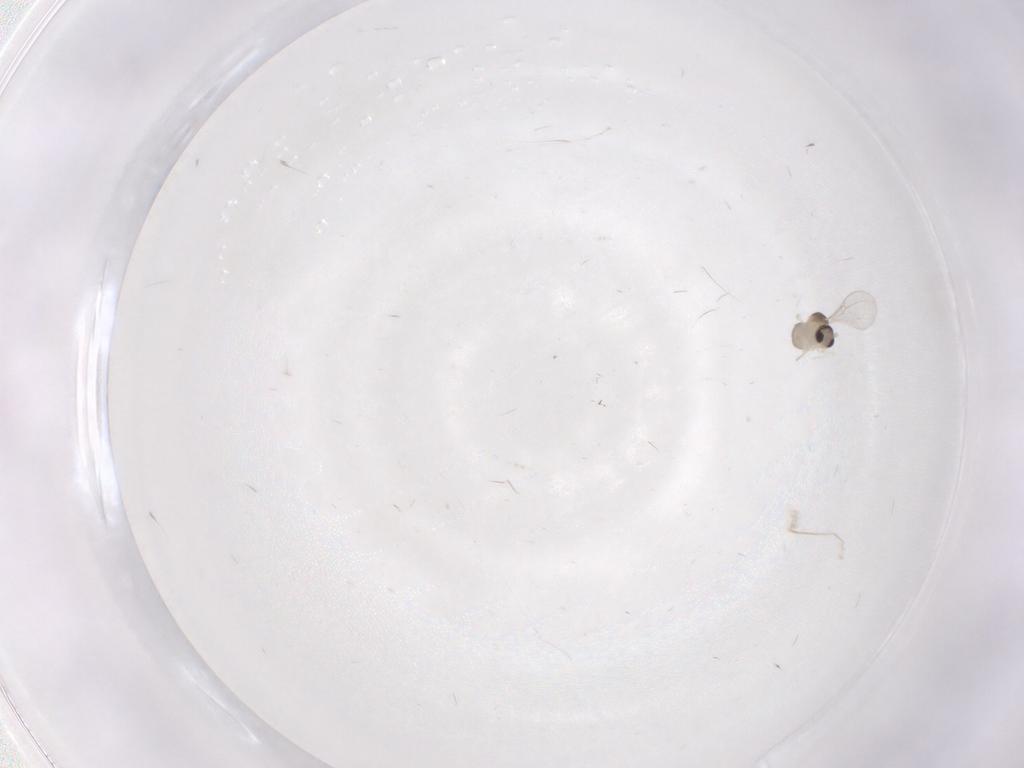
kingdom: Animalia
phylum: Arthropoda
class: Insecta
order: Diptera
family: Cecidomyiidae
